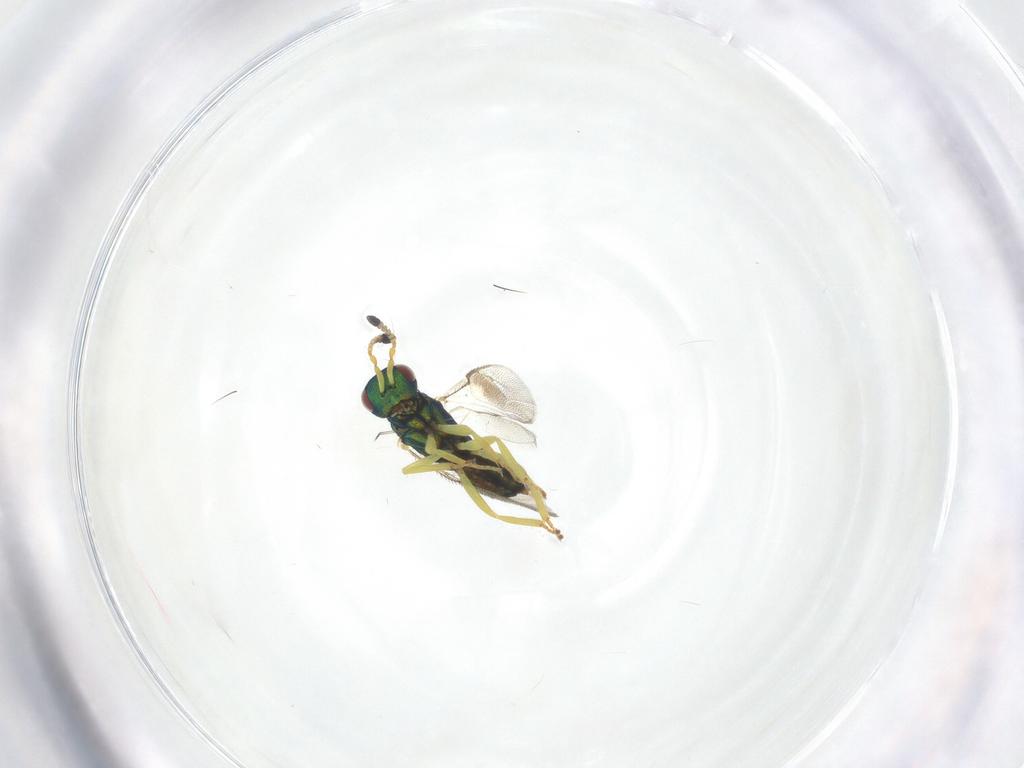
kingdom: Animalia
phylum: Arthropoda
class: Insecta
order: Hymenoptera
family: Pteromalidae
